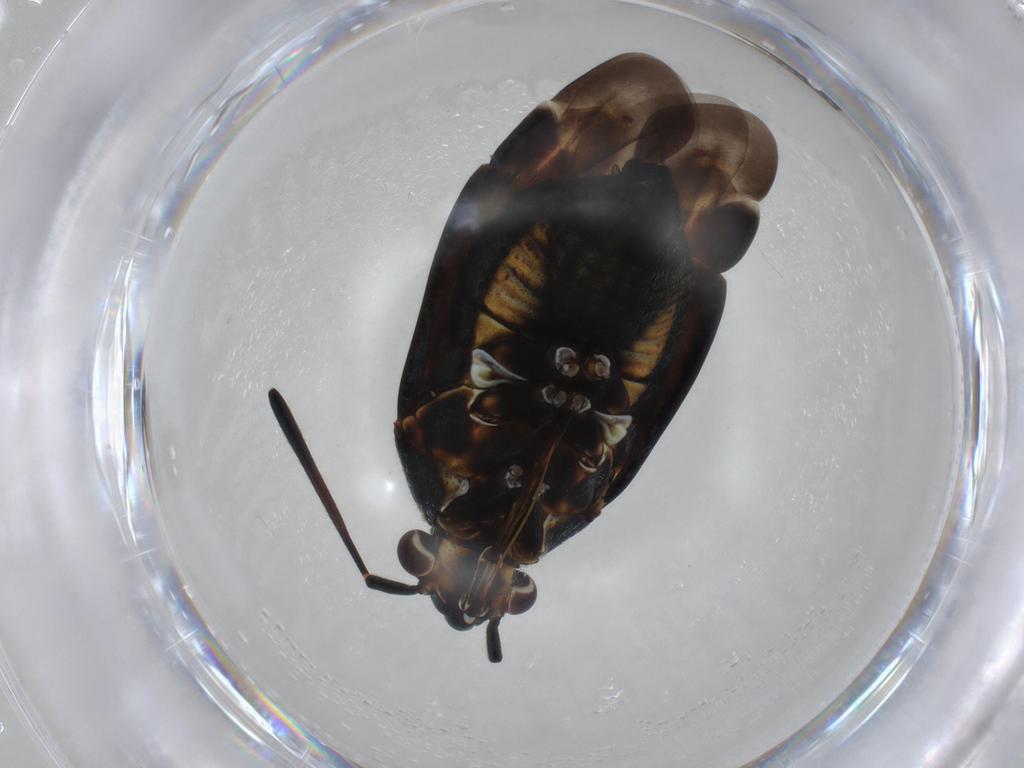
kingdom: Animalia
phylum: Arthropoda
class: Insecta
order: Hemiptera
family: Miridae
